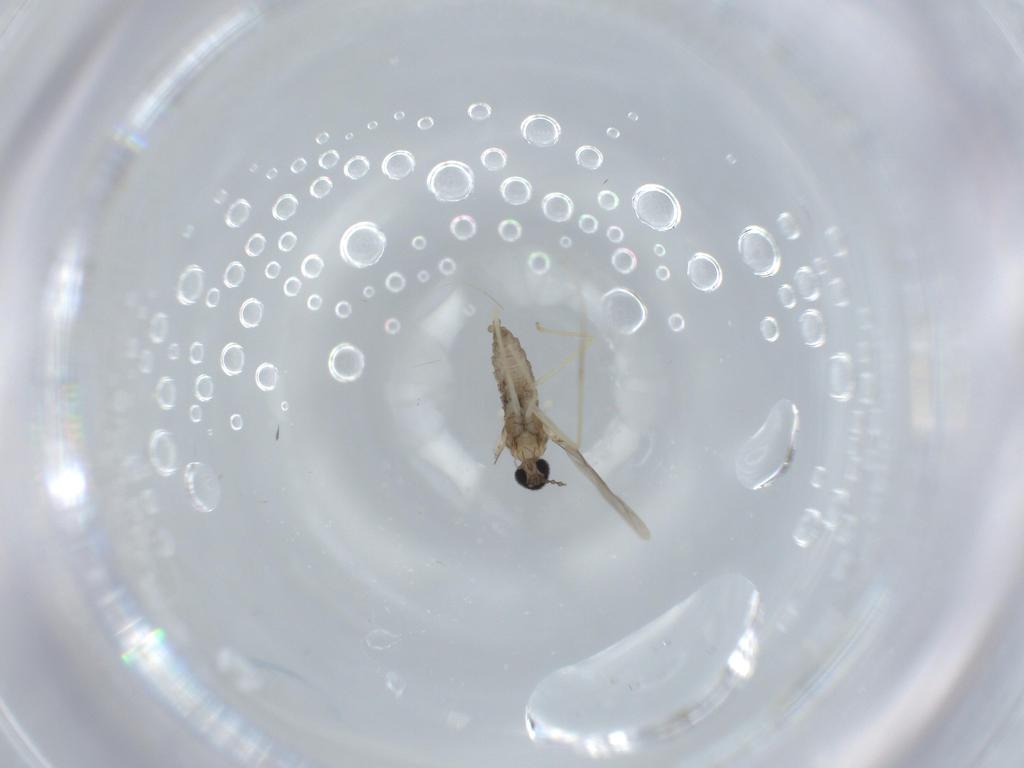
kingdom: Animalia
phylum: Arthropoda
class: Insecta
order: Diptera
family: Cecidomyiidae
